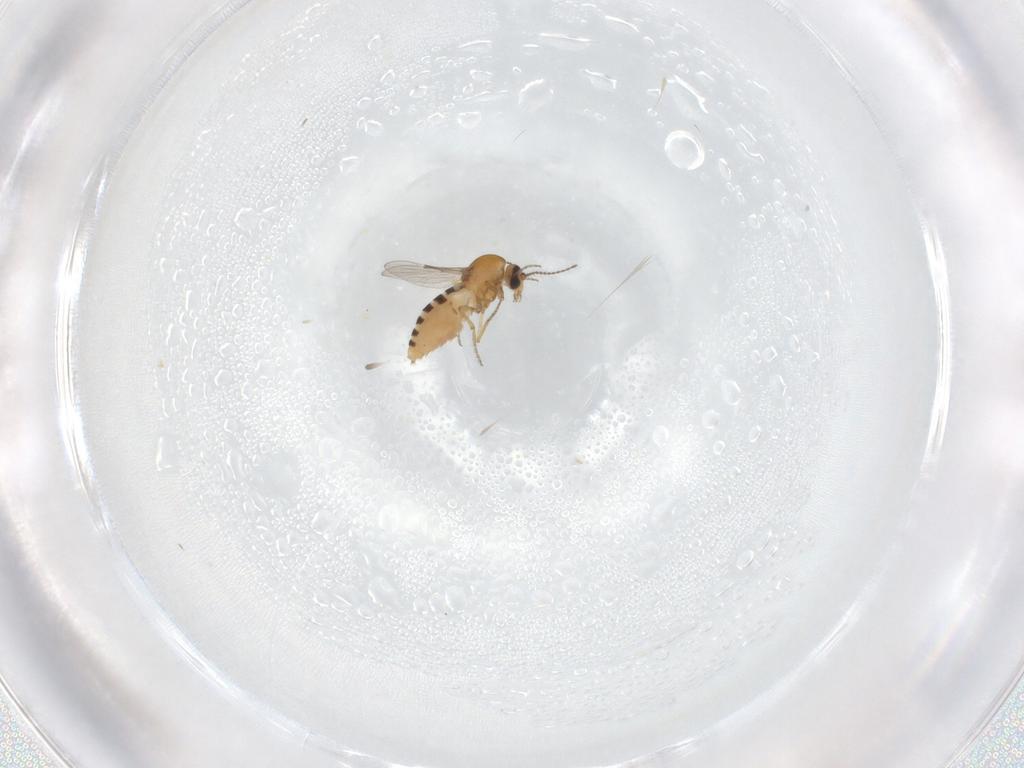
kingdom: Animalia
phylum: Arthropoda
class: Insecta
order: Diptera
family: Ceratopogonidae
